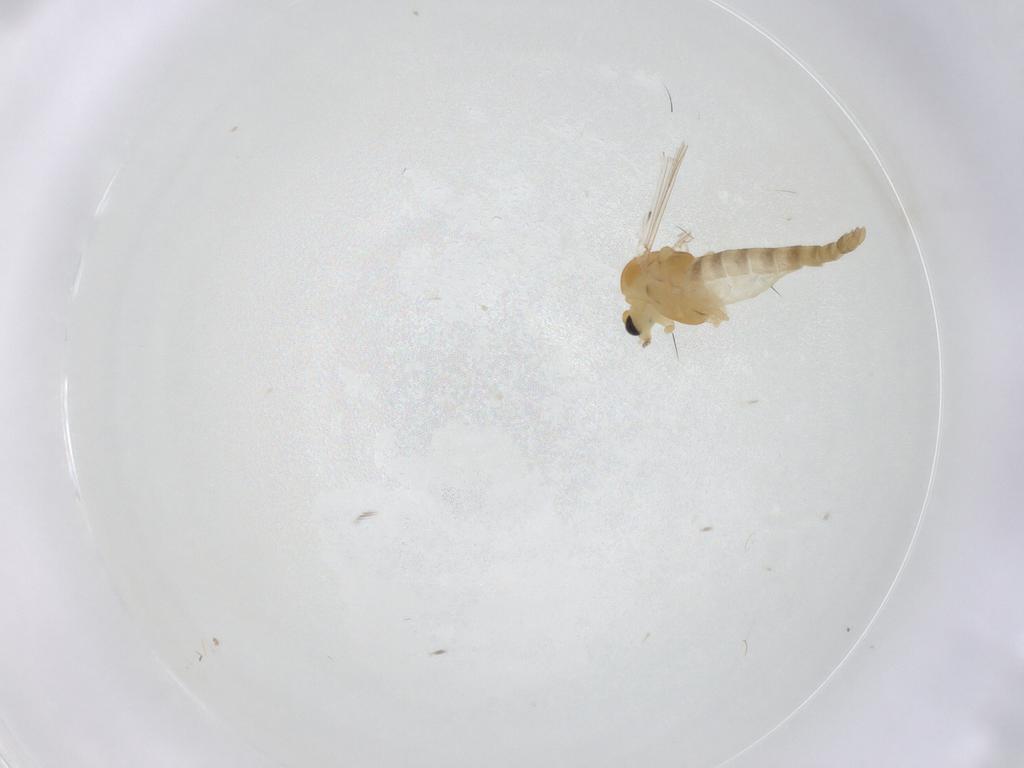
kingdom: Animalia
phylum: Arthropoda
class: Insecta
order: Diptera
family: Chironomidae
